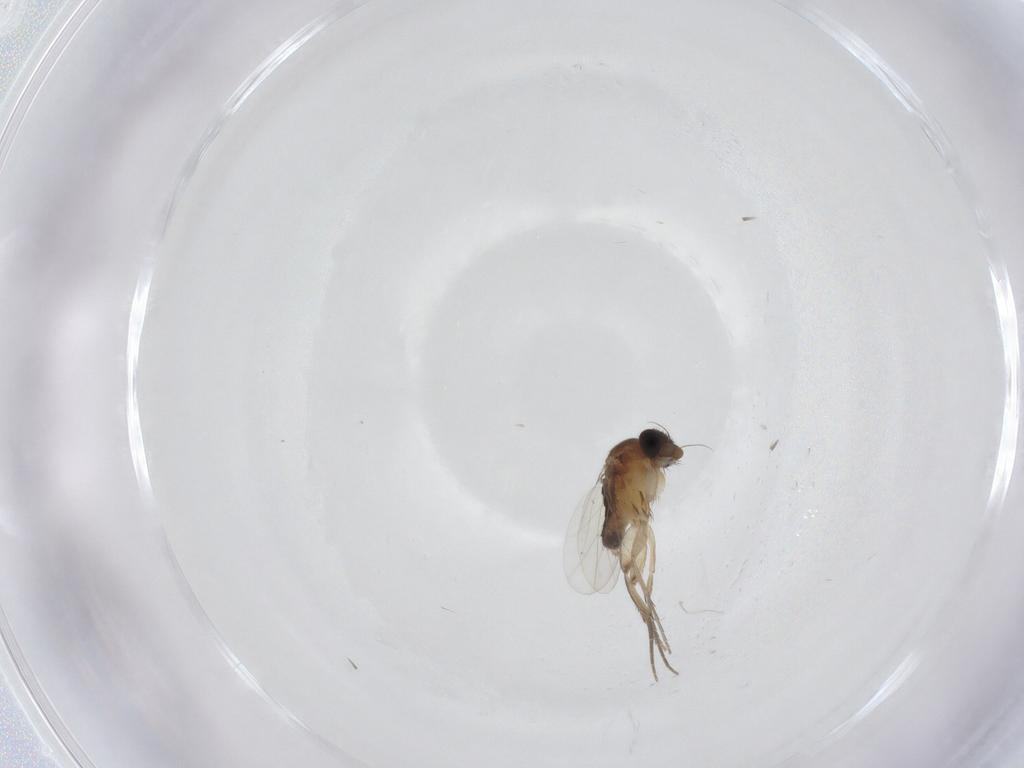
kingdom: Animalia
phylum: Arthropoda
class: Insecta
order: Diptera
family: Phoridae
